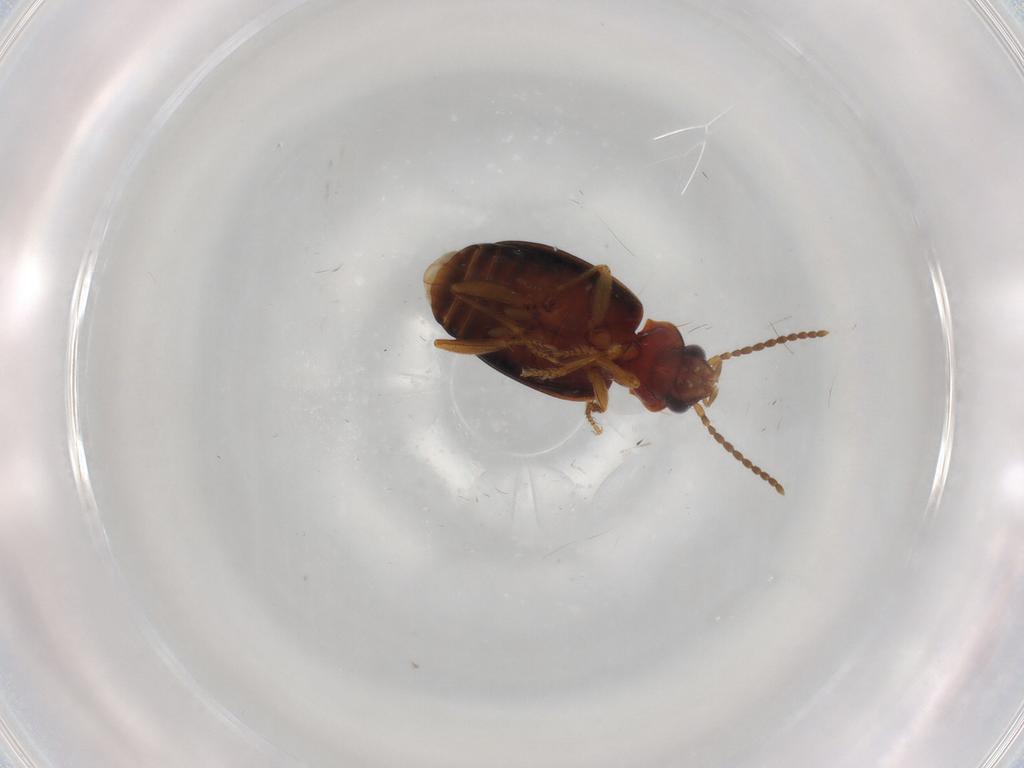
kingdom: Animalia
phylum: Arthropoda
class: Insecta
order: Coleoptera
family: Carabidae
